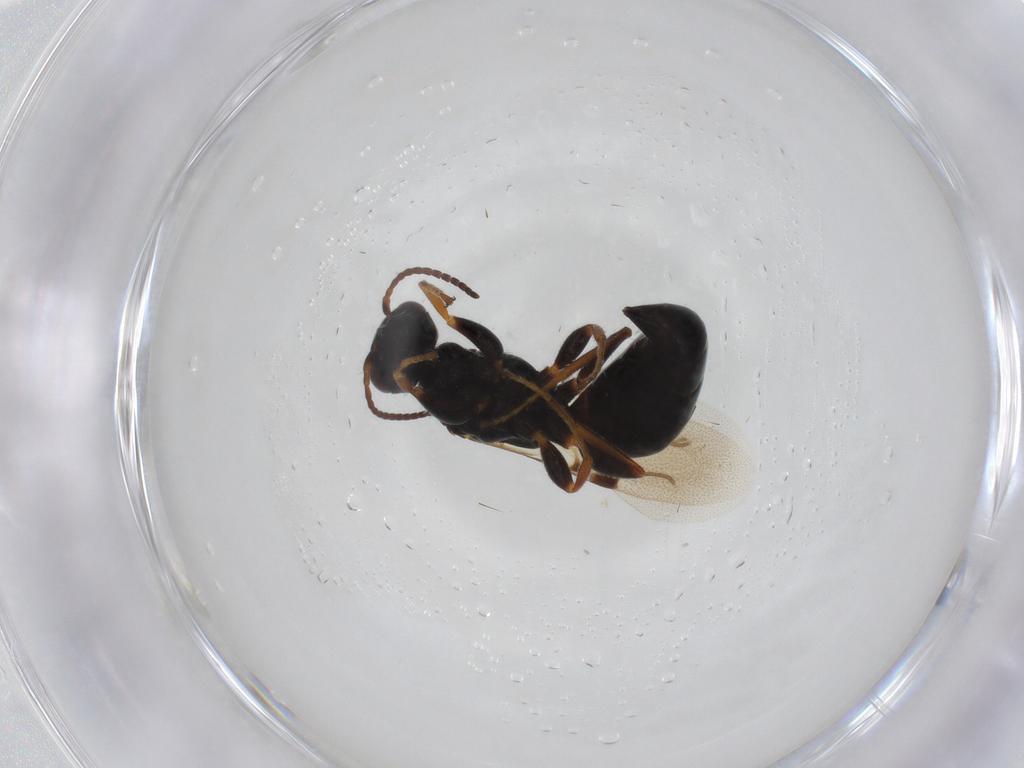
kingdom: Animalia
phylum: Arthropoda
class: Insecta
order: Hymenoptera
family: Bethylidae
